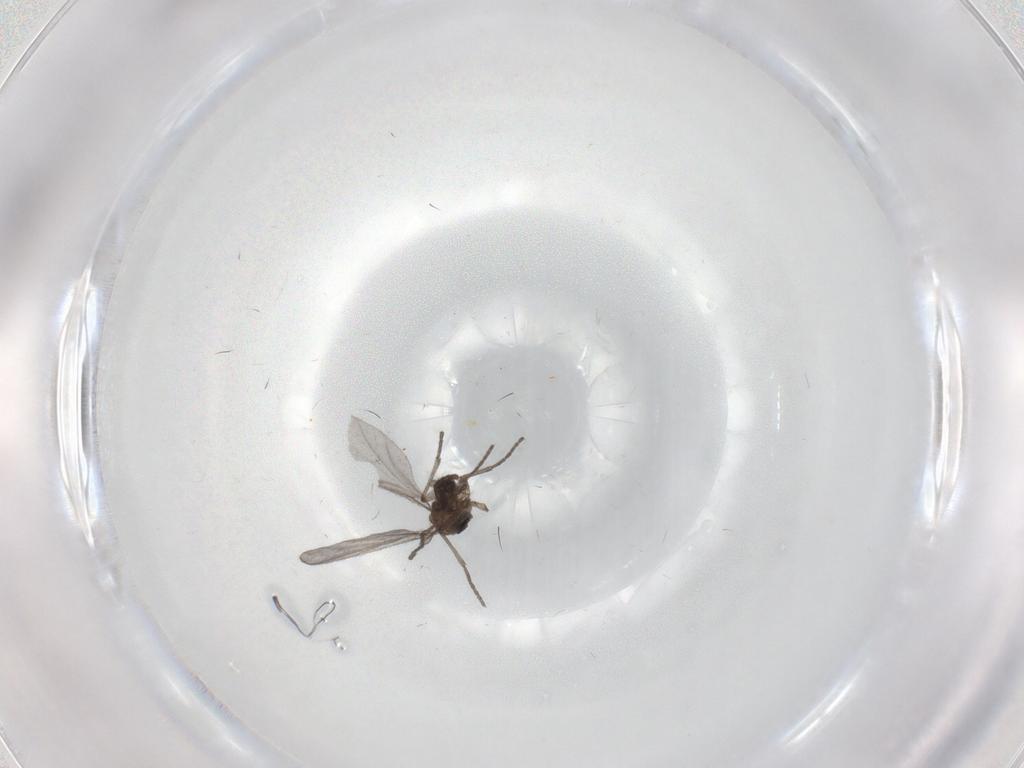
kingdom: Animalia
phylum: Arthropoda
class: Insecta
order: Diptera
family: Sciaridae
